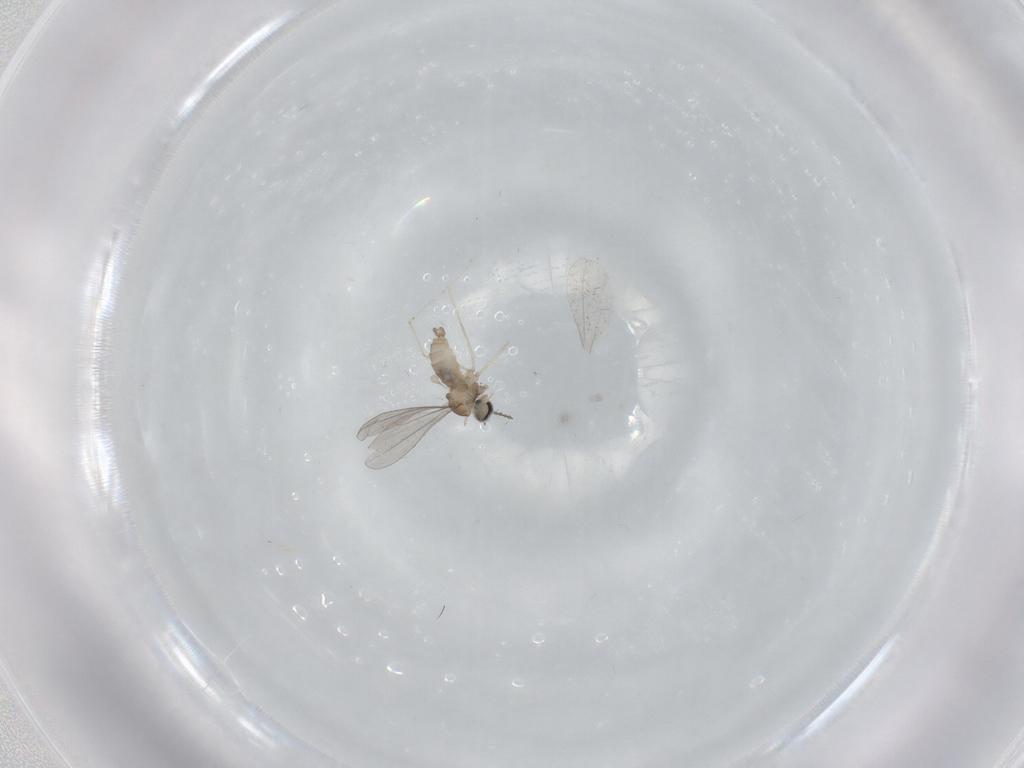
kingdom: Animalia
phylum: Arthropoda
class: Insecta
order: Diptera
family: Cecidomyiidae
